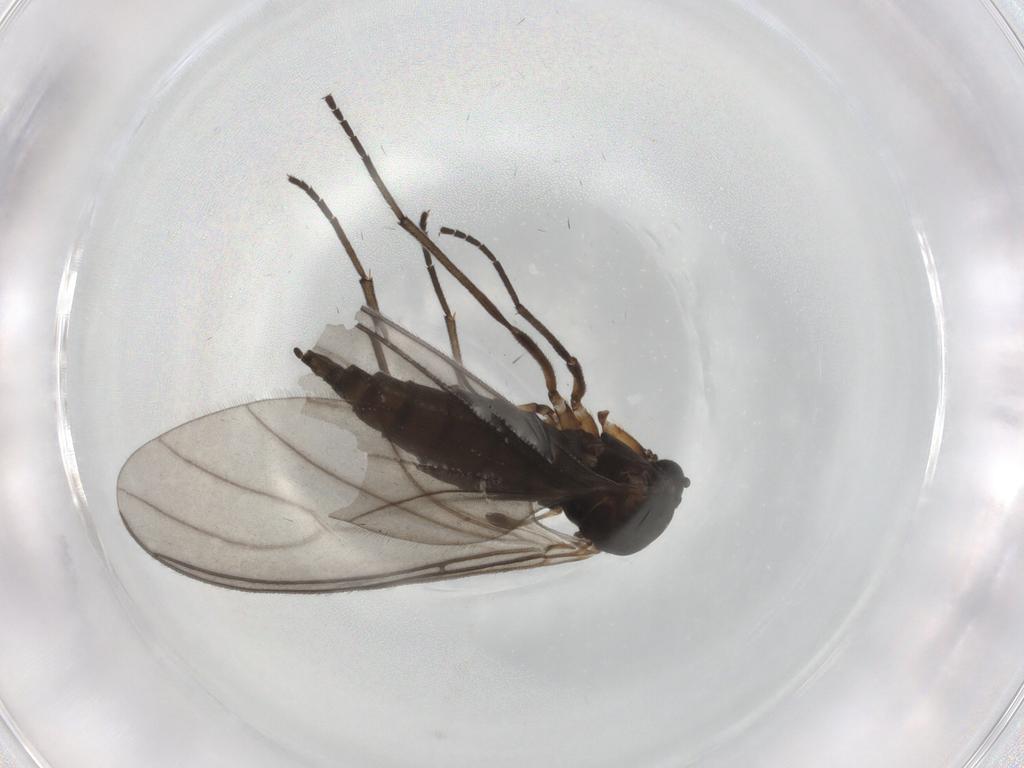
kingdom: Animalia
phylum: Arthropoda
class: Insecta
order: Diptera
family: Sciaridae
